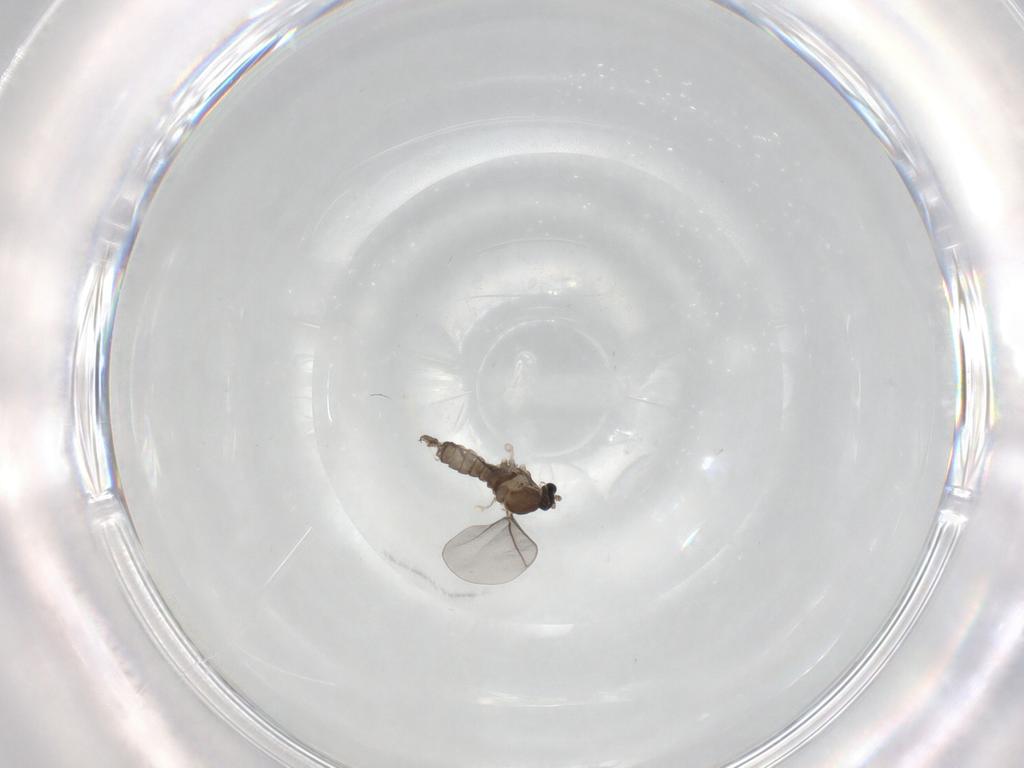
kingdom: Animalia
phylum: Arthropoda
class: Insecta
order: Diptera
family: Cecidomyiidae
